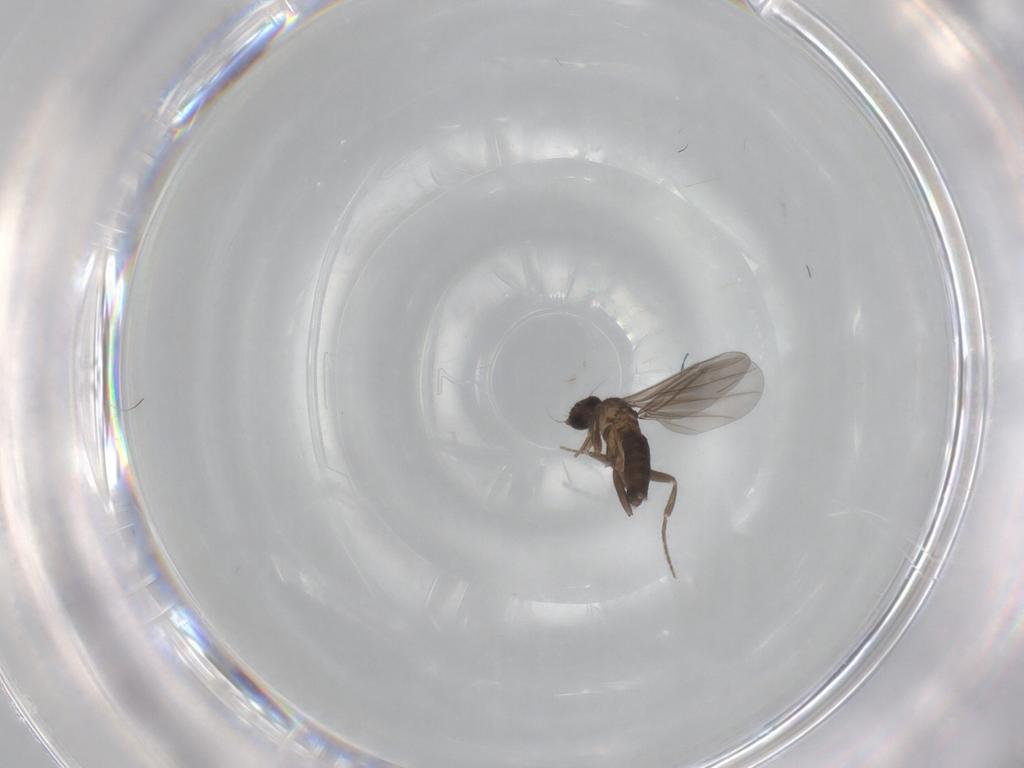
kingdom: Animalia
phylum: Arthropoda
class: Insecta
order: Diptera
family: Phoridae
